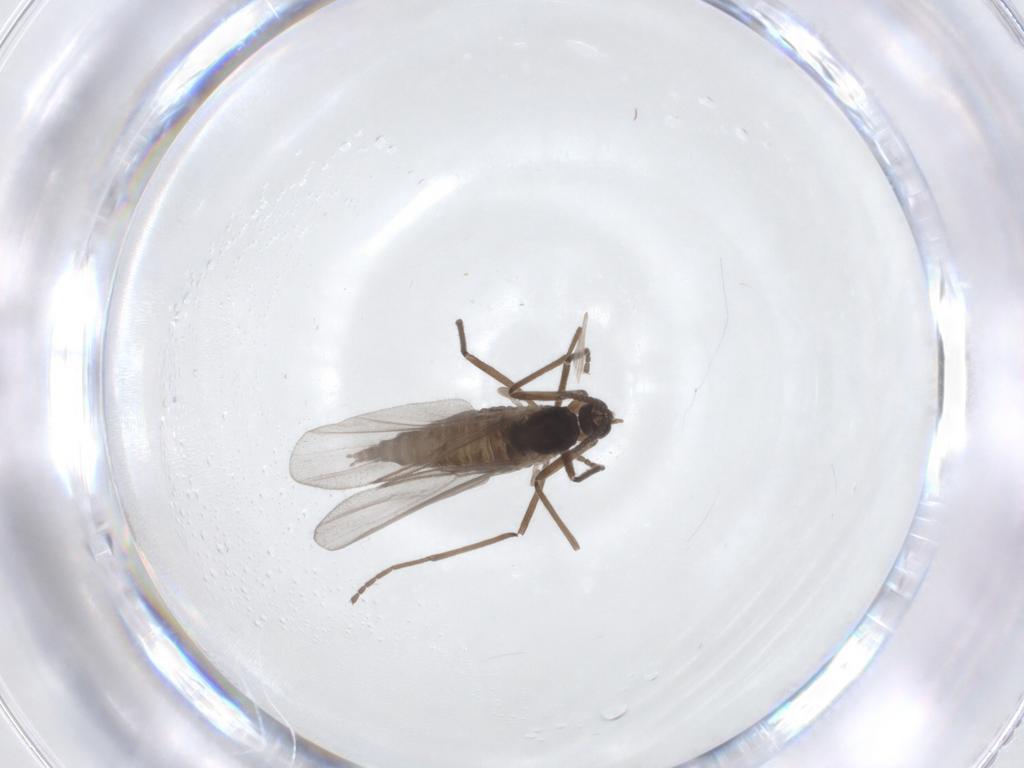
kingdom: Animalia
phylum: Arthropoda
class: Insecta
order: Diptera
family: Cecidomyiidae
